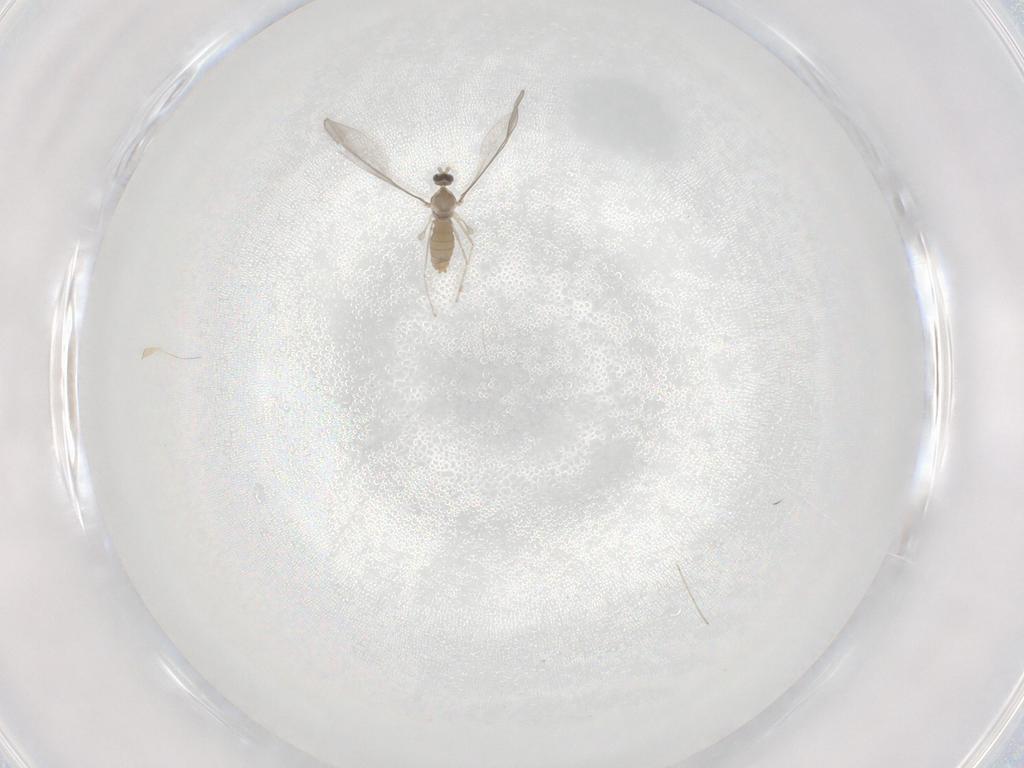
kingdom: Animalia
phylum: Arthropoda
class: Insecta
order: Diptera
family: Cecidomyiidae
